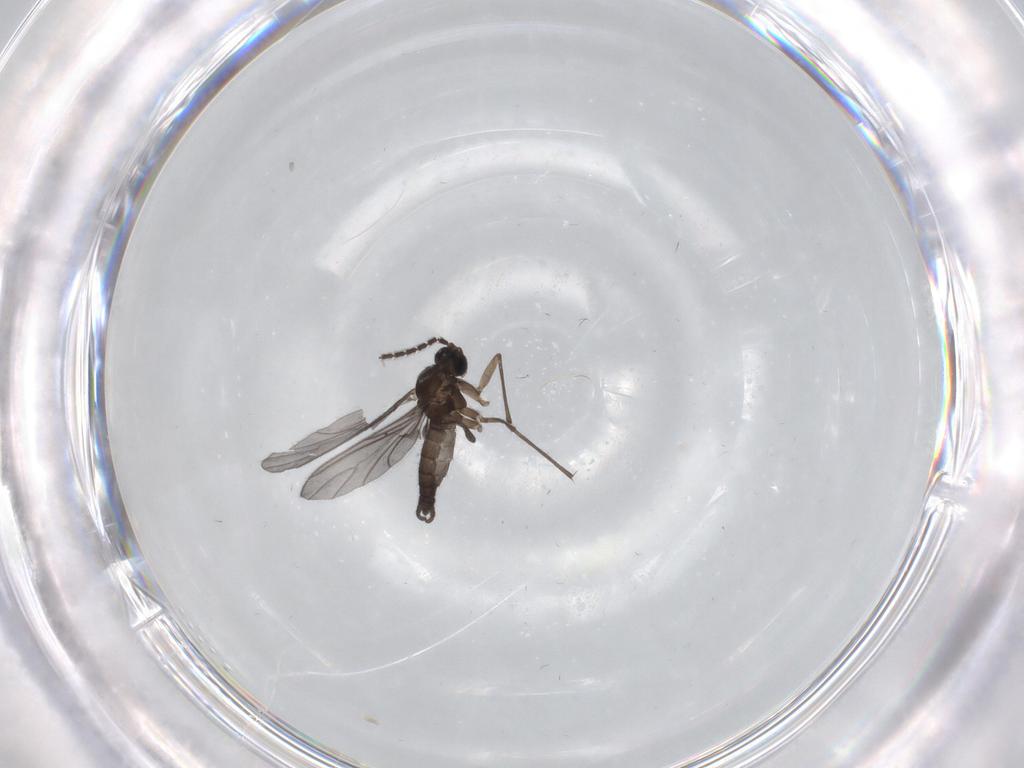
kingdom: Animalia
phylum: Arthropoda
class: Insecta
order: Diptera
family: Sciaridae
